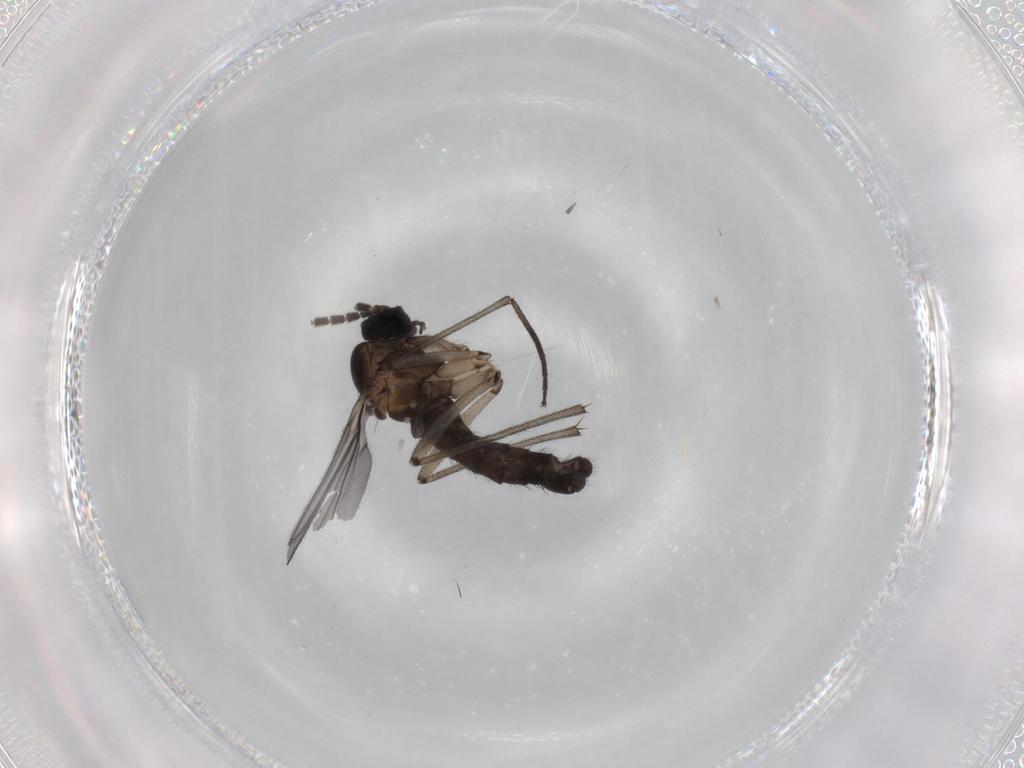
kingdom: Animalia
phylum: Arthropoda
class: Insecta
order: Diptera
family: Sciaridae
